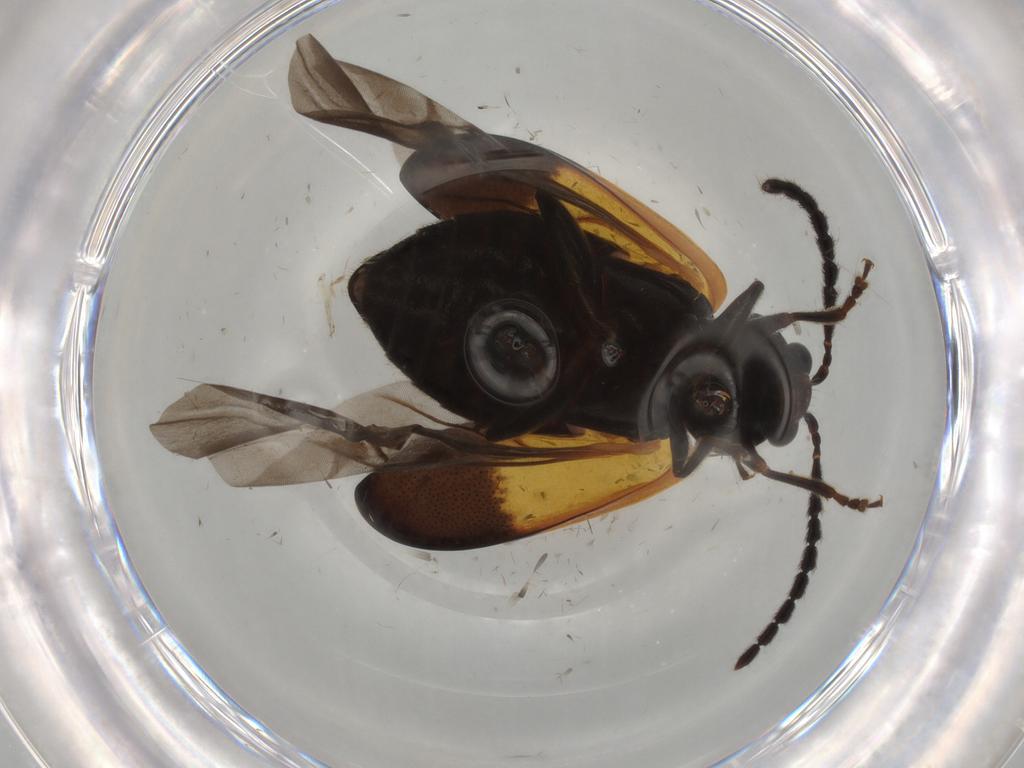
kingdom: Animalia
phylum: Arthropoda
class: Insecta
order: Coleoptera
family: Chrysomelidae
